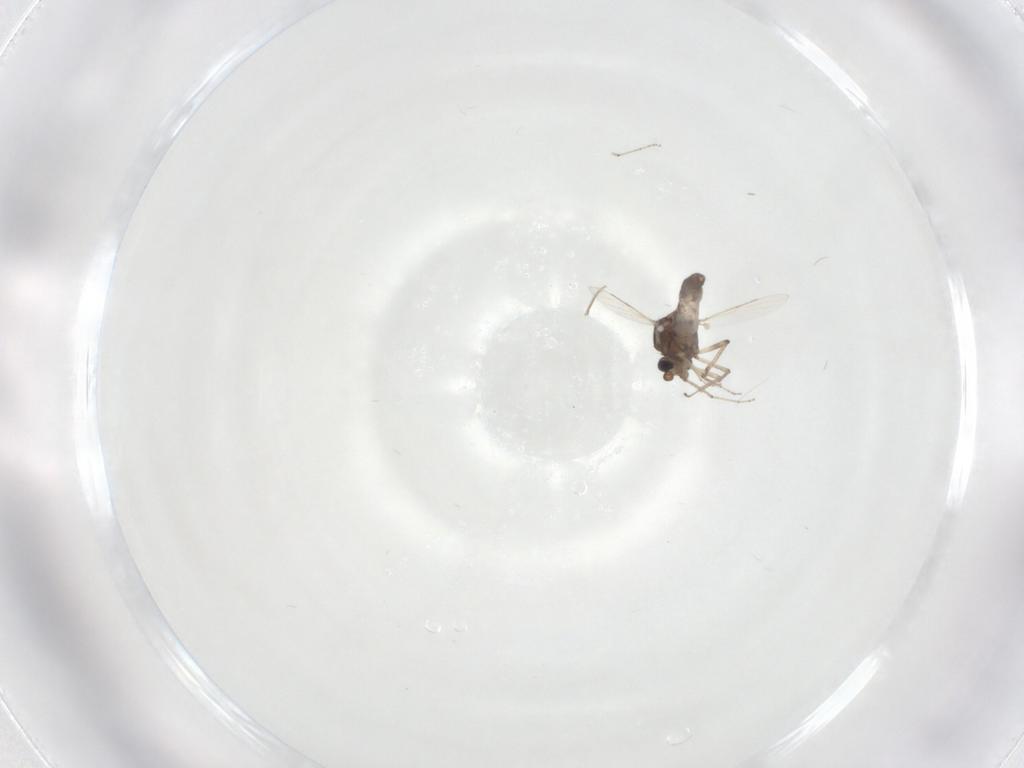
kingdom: Animalia
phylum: Arthropoda
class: Insecta
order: Diptera
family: Ceratopogonidae
